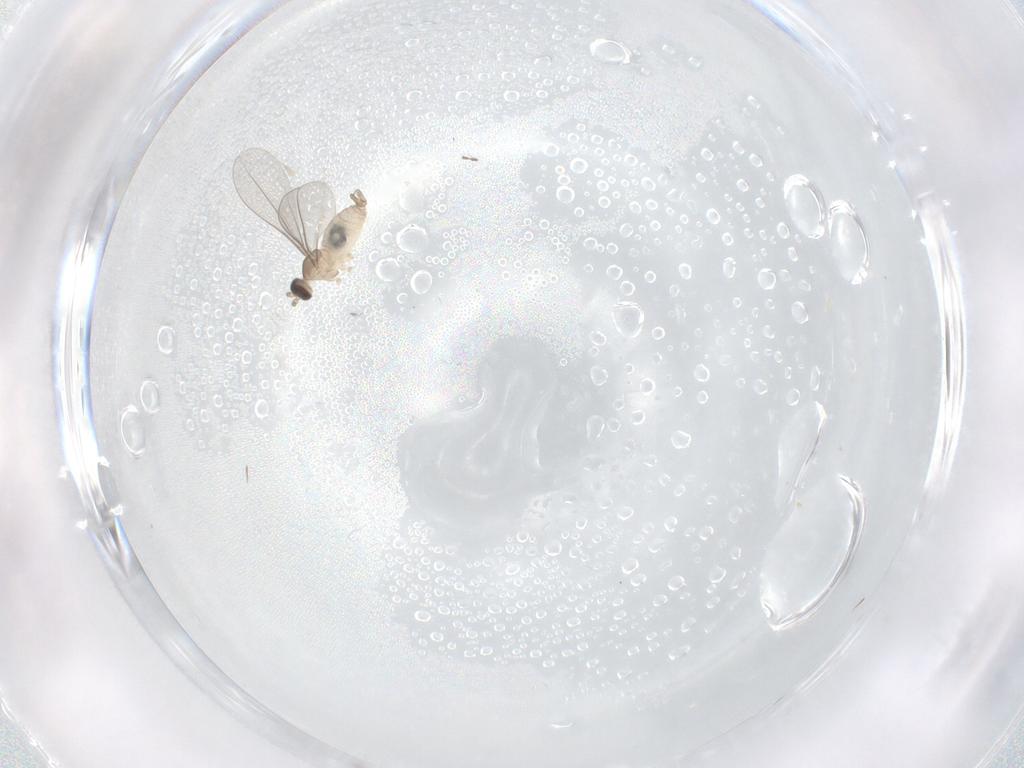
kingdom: Animalia
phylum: Arthropoda
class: Insecta
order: Diptera
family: Cecidomyiidae
